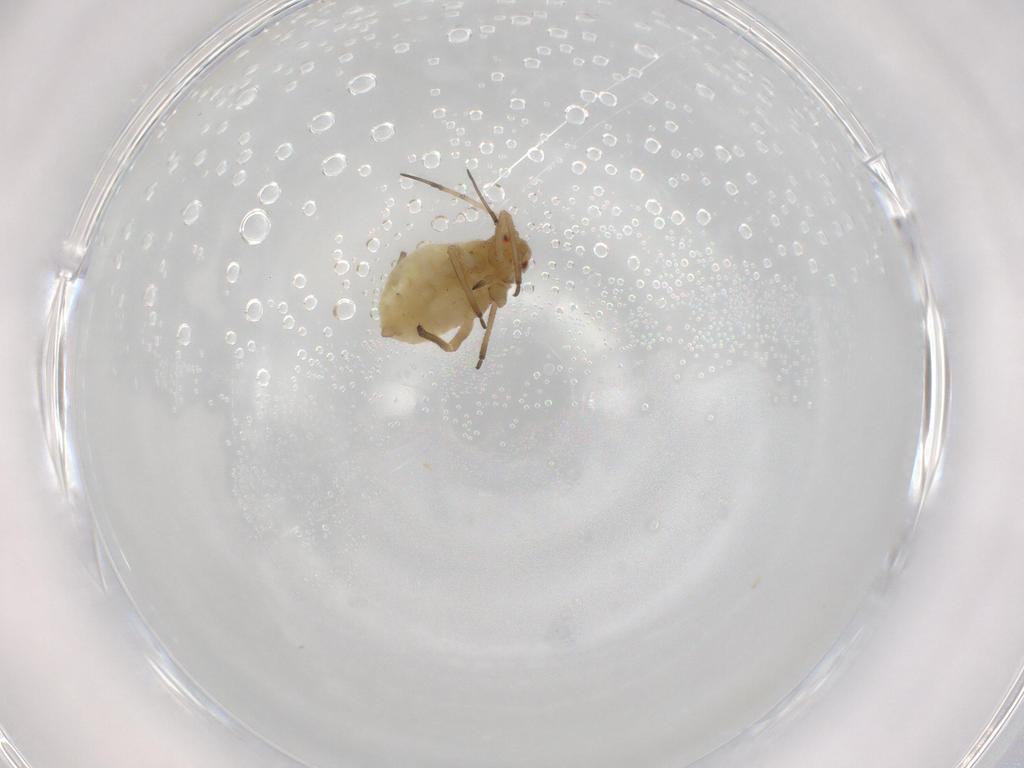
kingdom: Animalia
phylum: Arthropoda
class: Insecta
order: Hemiptera
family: Aphididae
